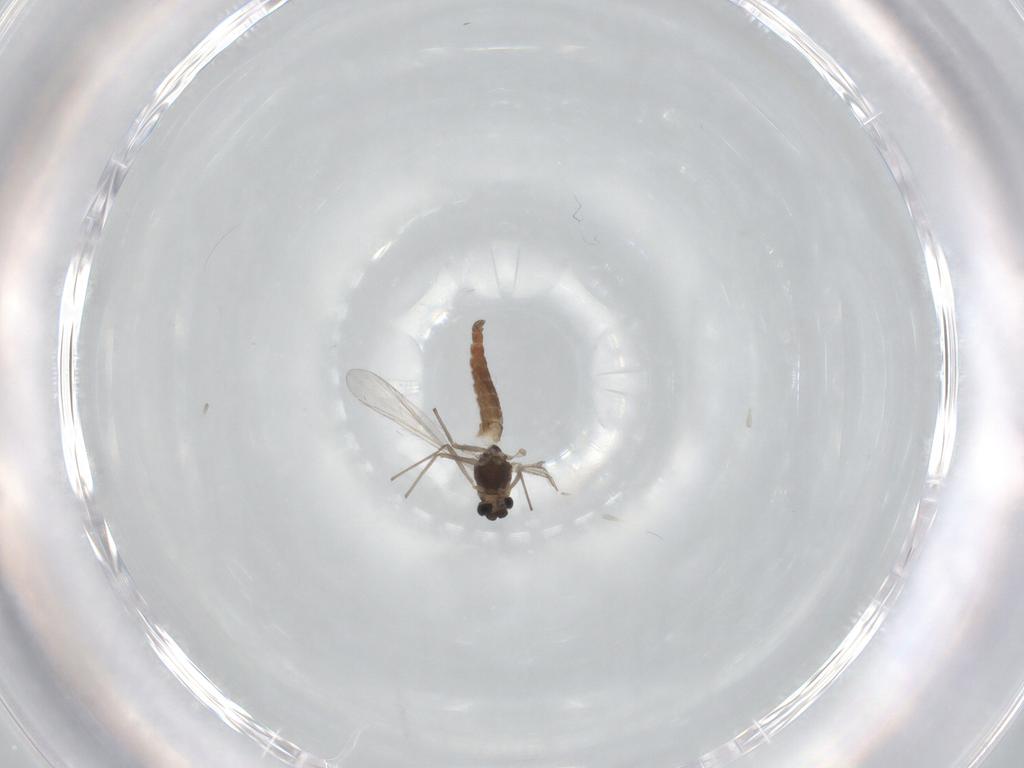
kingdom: Animalia
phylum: Arthropoda
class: Insecta
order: Diptera
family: Chironomidae
